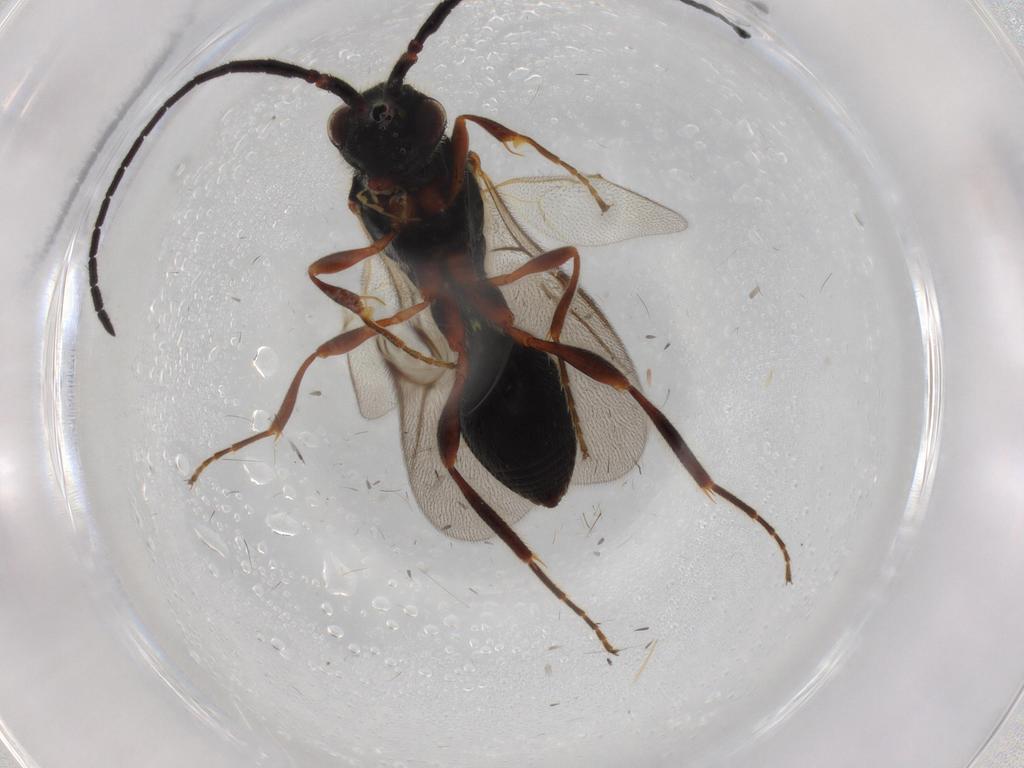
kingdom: Animalia
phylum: Arthropoda
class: Insecta
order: Hymenoptera
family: Diapriidae
